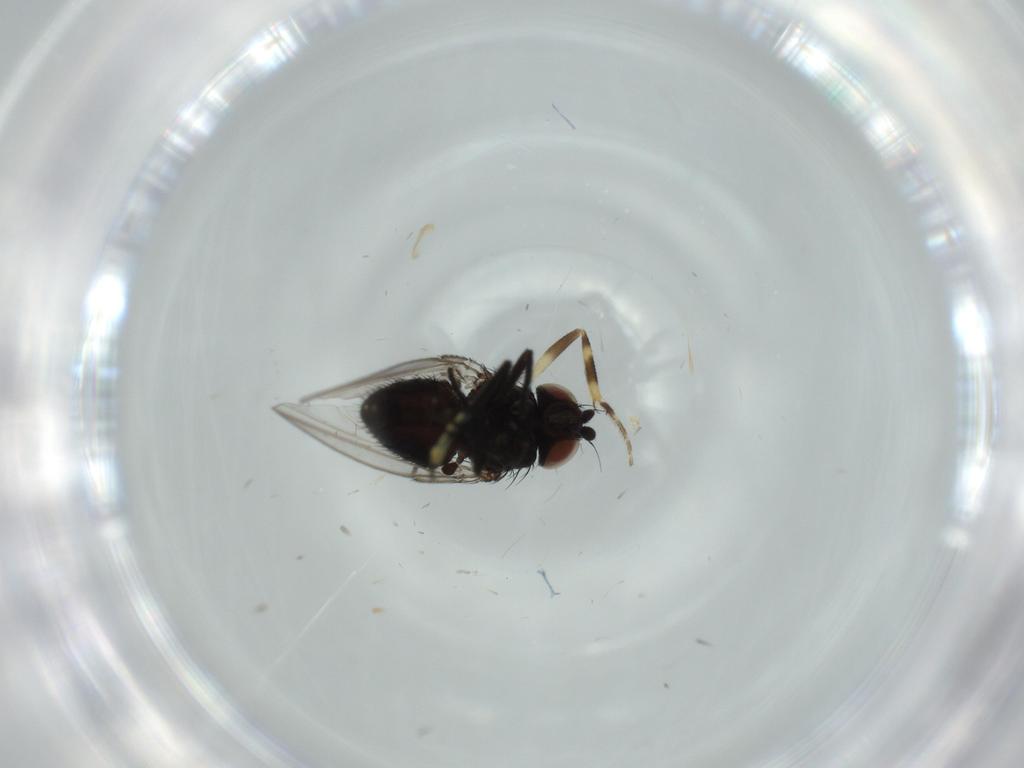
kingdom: Animalia
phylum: Arthropoda
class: Insecta
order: Diptera
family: Milichiidae
